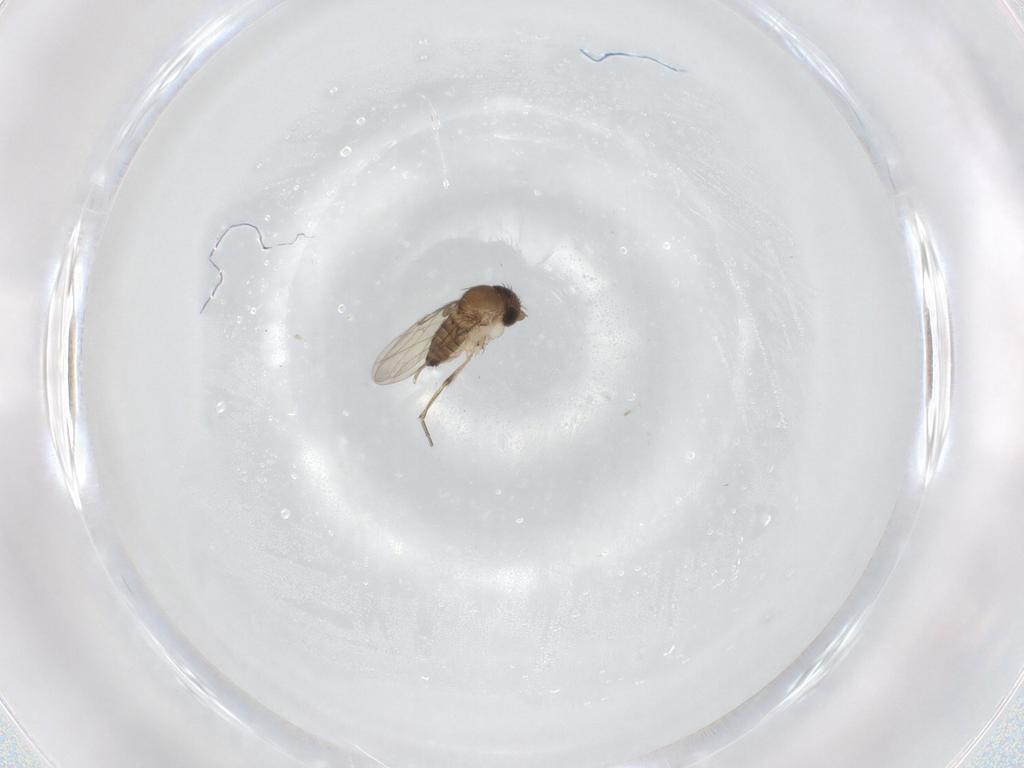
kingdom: Animalia
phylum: Arthropoda
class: Insecta
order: Diptera
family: Phoridae
